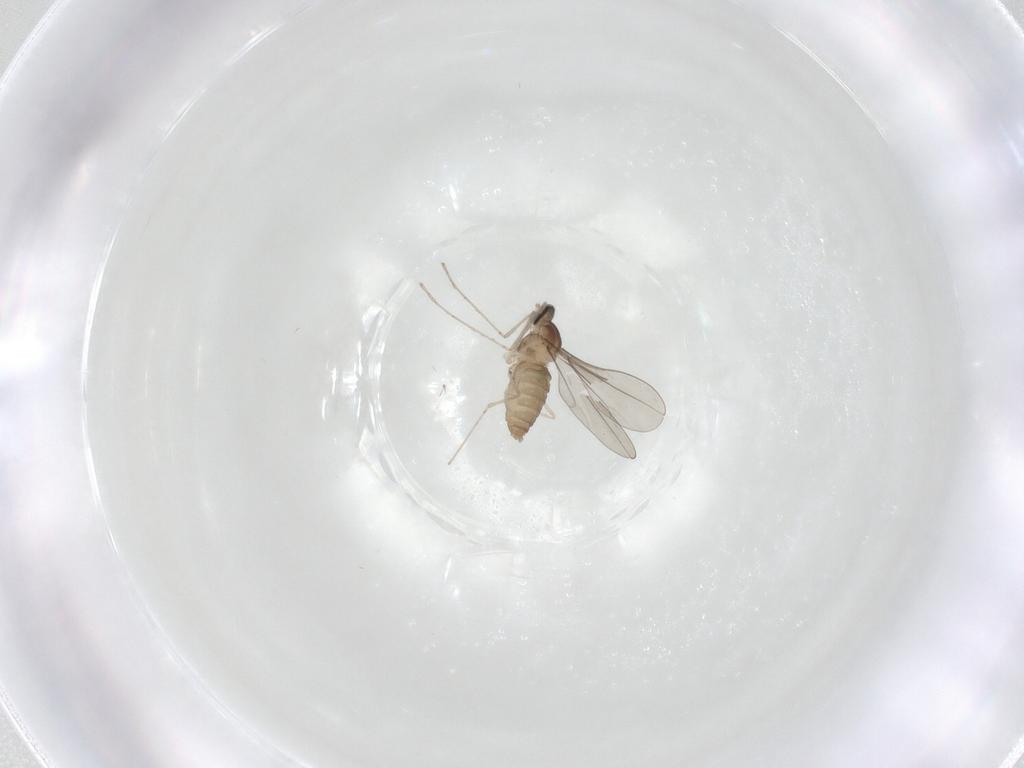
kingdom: Animalia
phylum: Arthropoda
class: Insecta
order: Diptera
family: Cecidomyiidae
